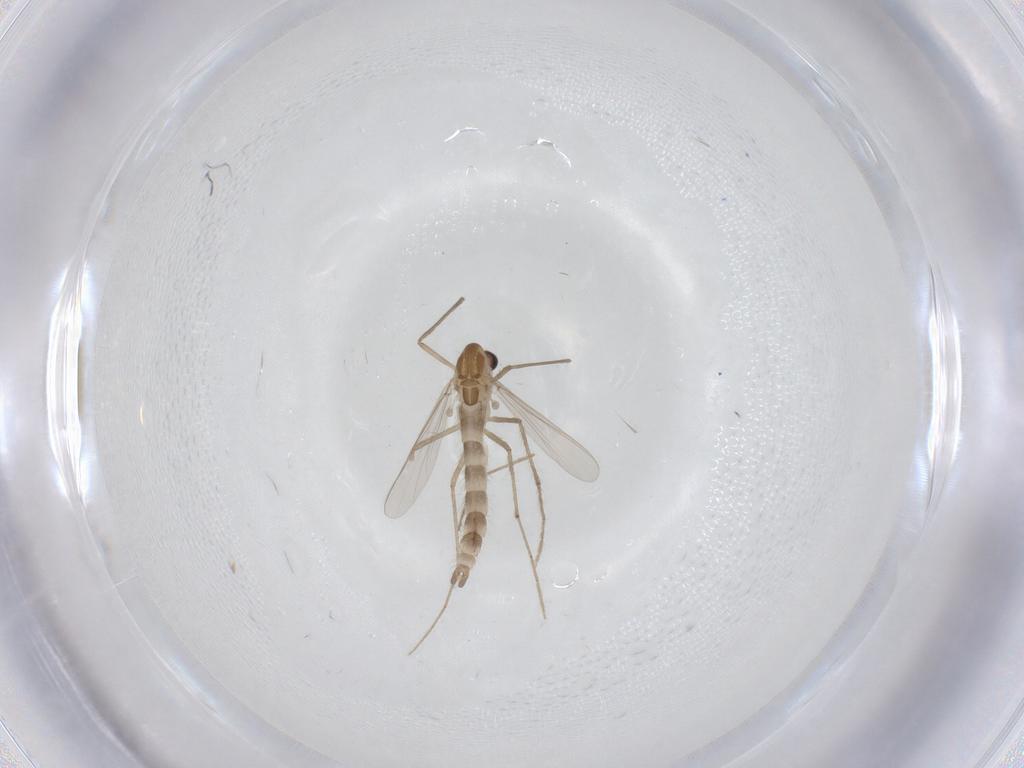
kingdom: Animalia
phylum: Arthropoda
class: Insecta
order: Diptera
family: Chironomidae
